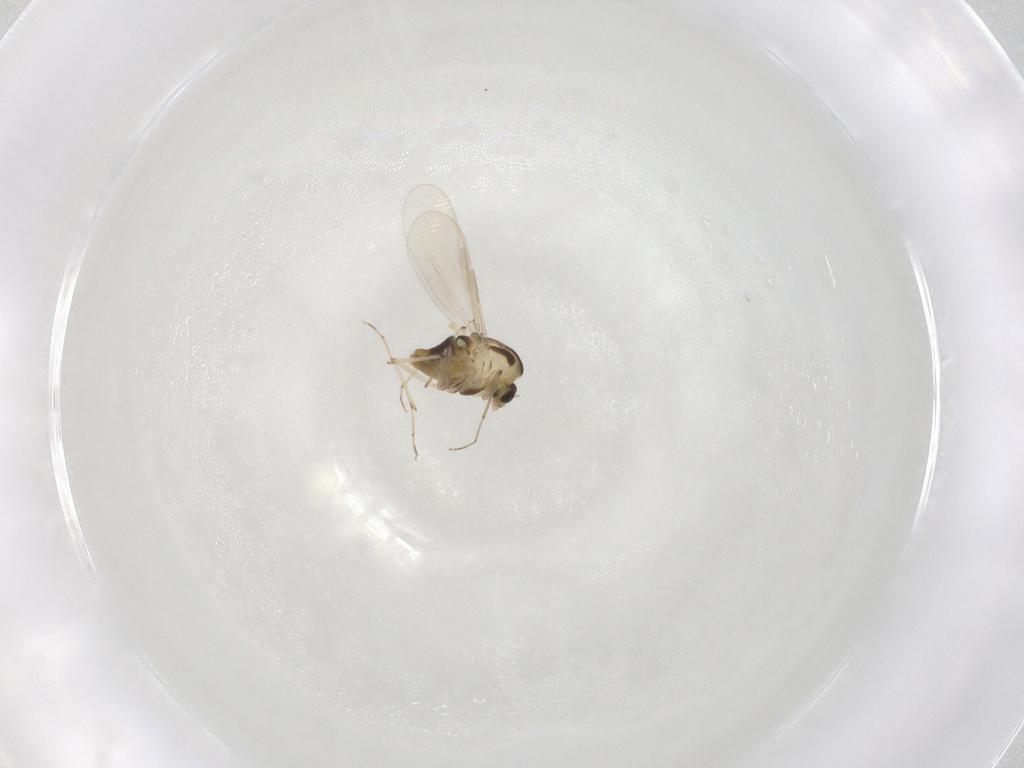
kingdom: Animalia
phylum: Arthropoda
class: Insecta
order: Diptera
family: Chironomidae
